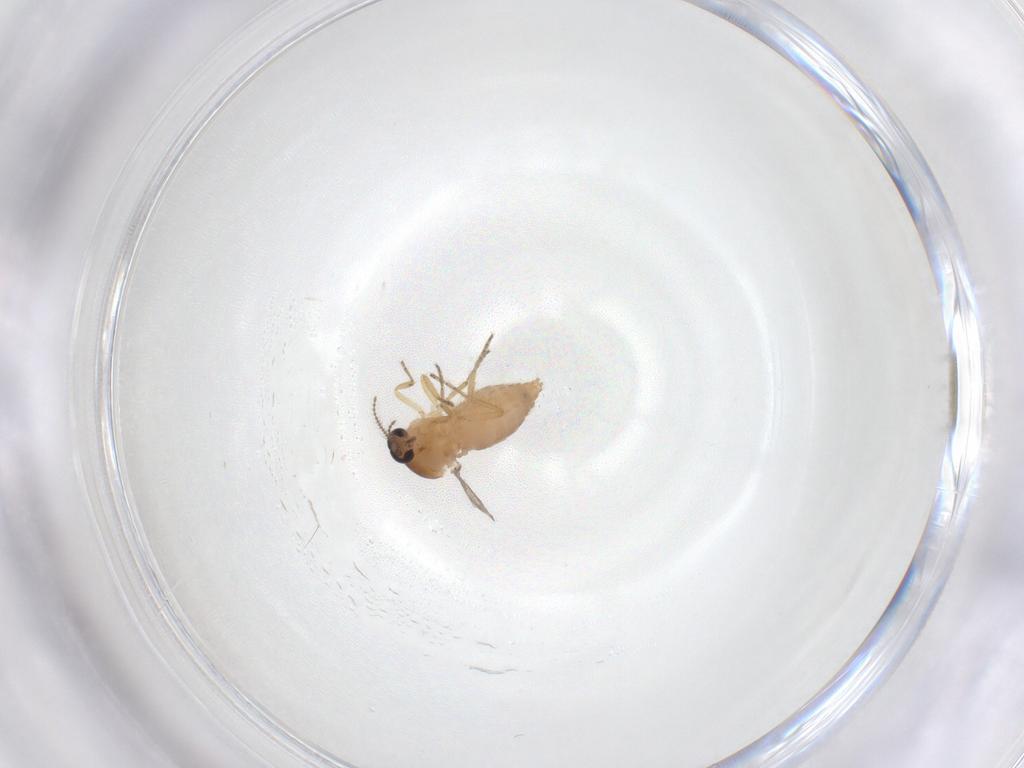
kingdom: Animalia
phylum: Arthropoda
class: Insecta
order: Diptera
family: Ceratopogonidae
